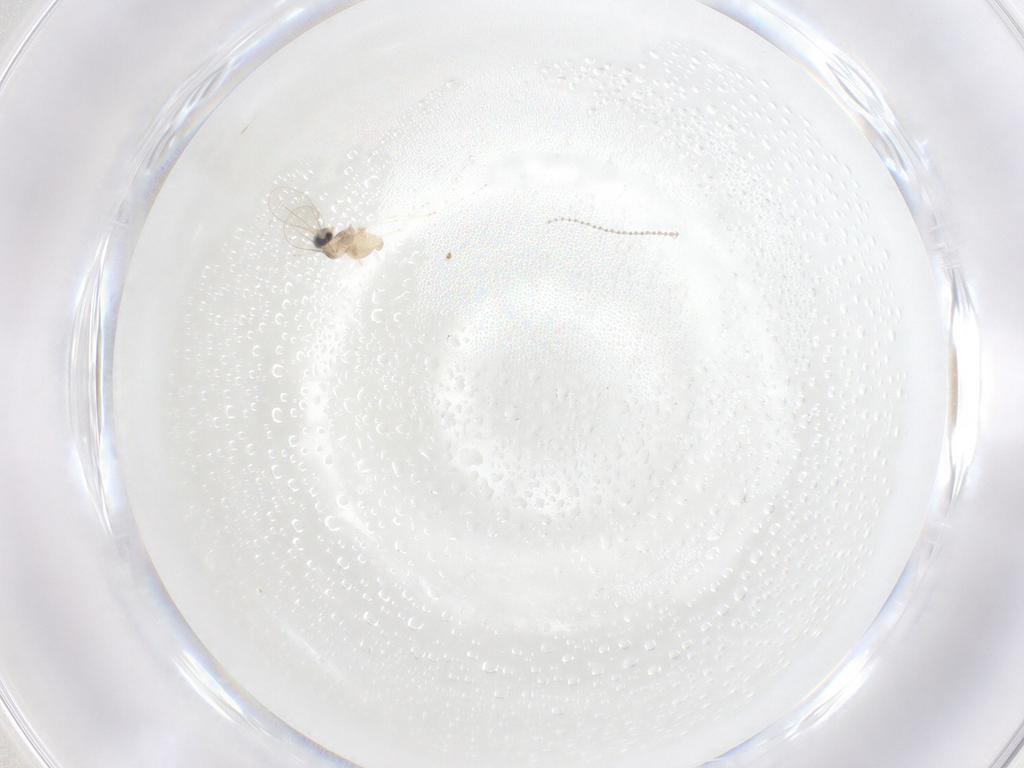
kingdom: Animalia
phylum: Arthropoda
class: Insecta
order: Diptera
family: Cecidomyiidae
